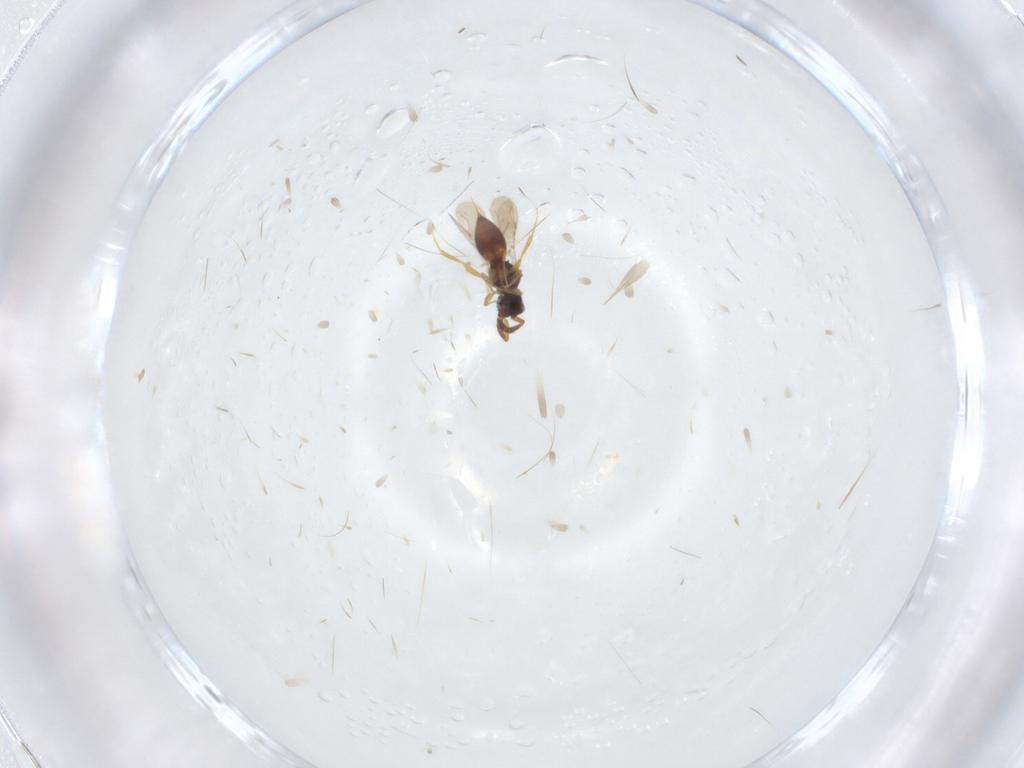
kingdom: Animalia
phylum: Arthropoda
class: Insecta
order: Hymenoptera
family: Formicidae
